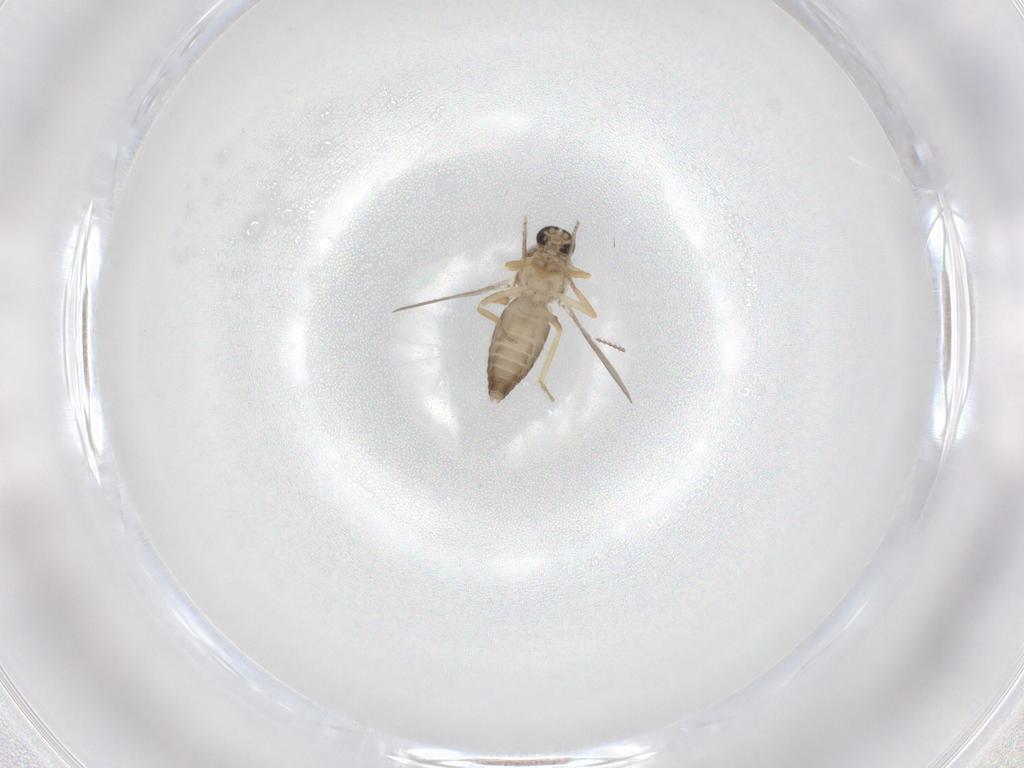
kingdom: Animalia
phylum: Arthropoda
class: Insecta
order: Diptera
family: Ceratopogonidae
